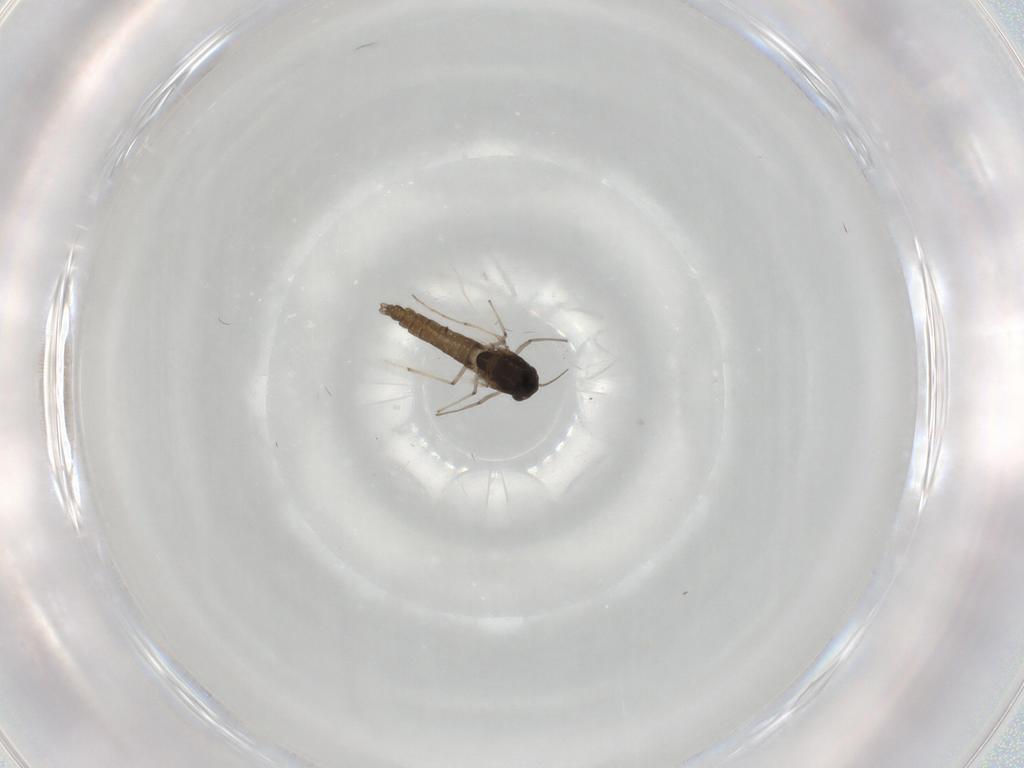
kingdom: Animalia
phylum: Arthropoda
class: Insecta
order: Diptera
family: Chironomidae
